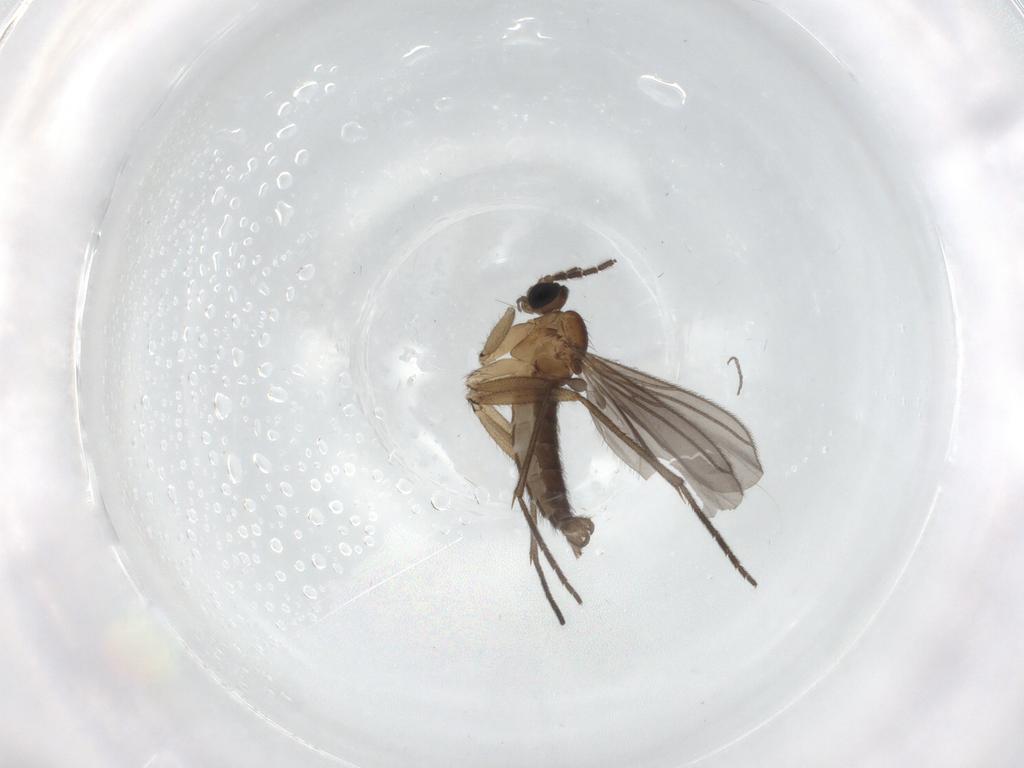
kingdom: Animalia
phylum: Arthropoda
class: Insecta
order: Diptera
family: Sciaridae
